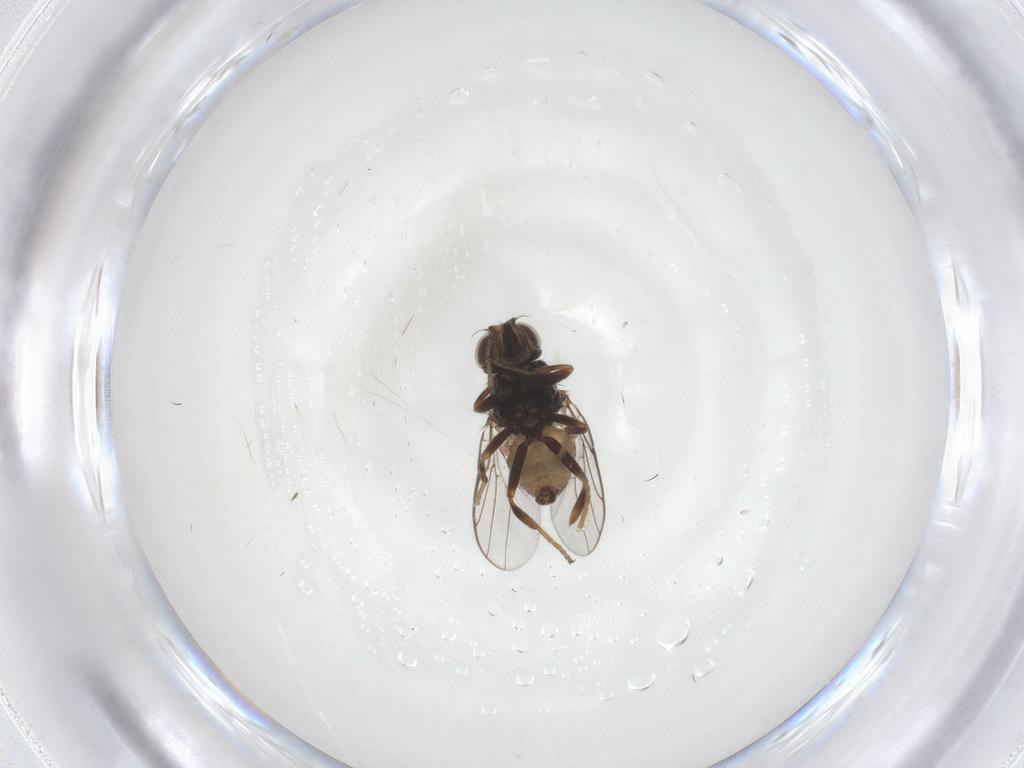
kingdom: Animalia
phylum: Arthropoda
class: Insecta
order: Diptera
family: Chloropidae
